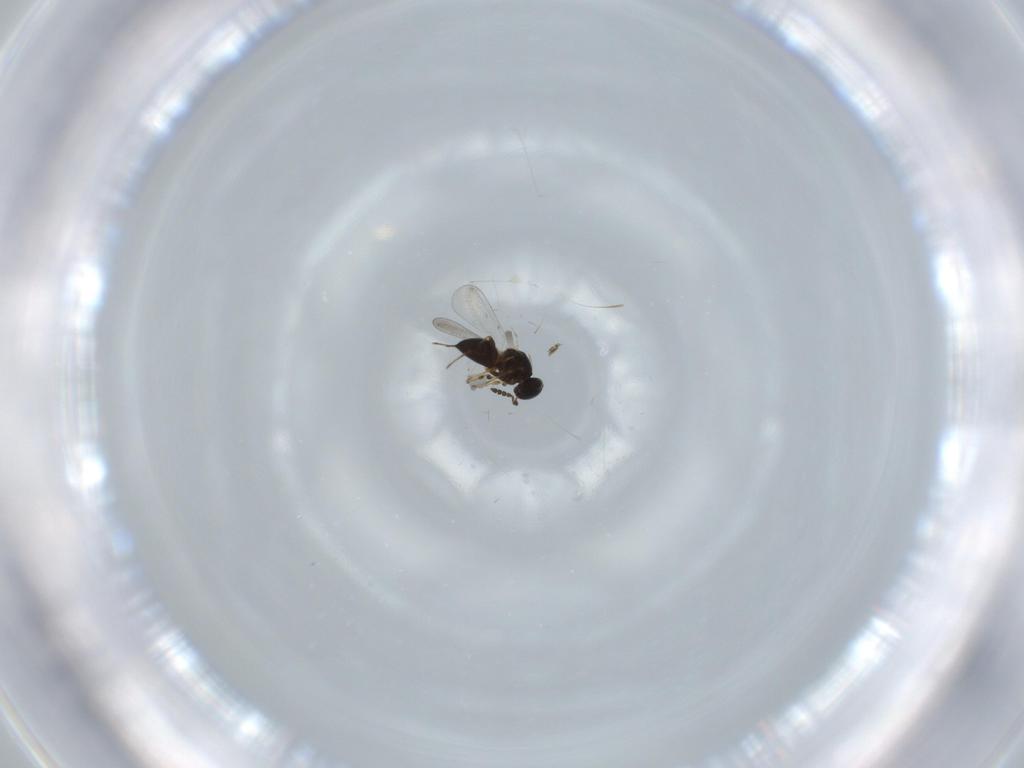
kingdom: Animalia
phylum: Arthropoda
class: Insecta
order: Hymenoptera
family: Platygastridae
